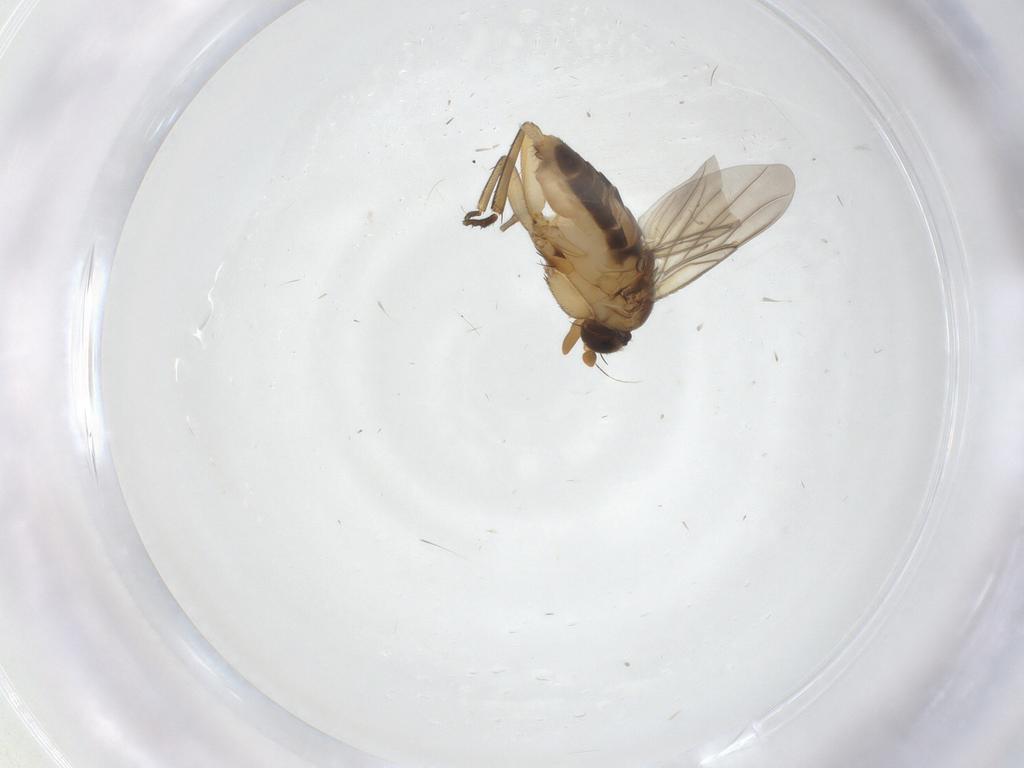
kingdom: Animalia
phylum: Arthropoda
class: Insecta
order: Diptera
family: Phoridae
